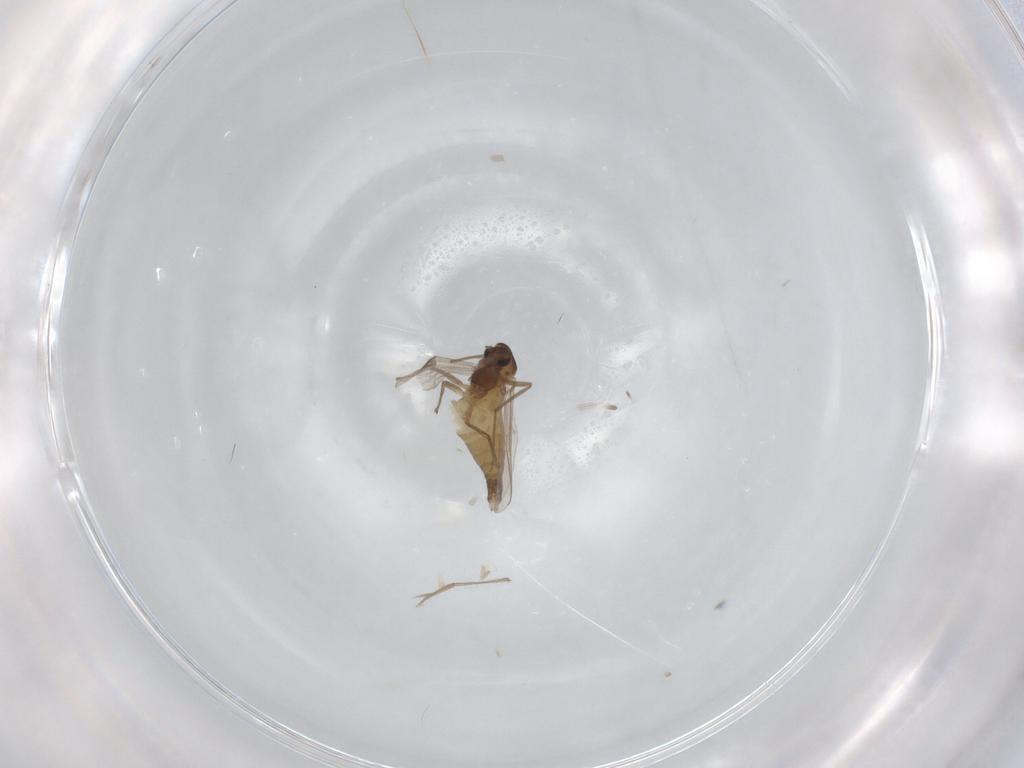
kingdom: Animalia
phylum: Arthropoda
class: Insecta
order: Diptera
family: Chironomidae
